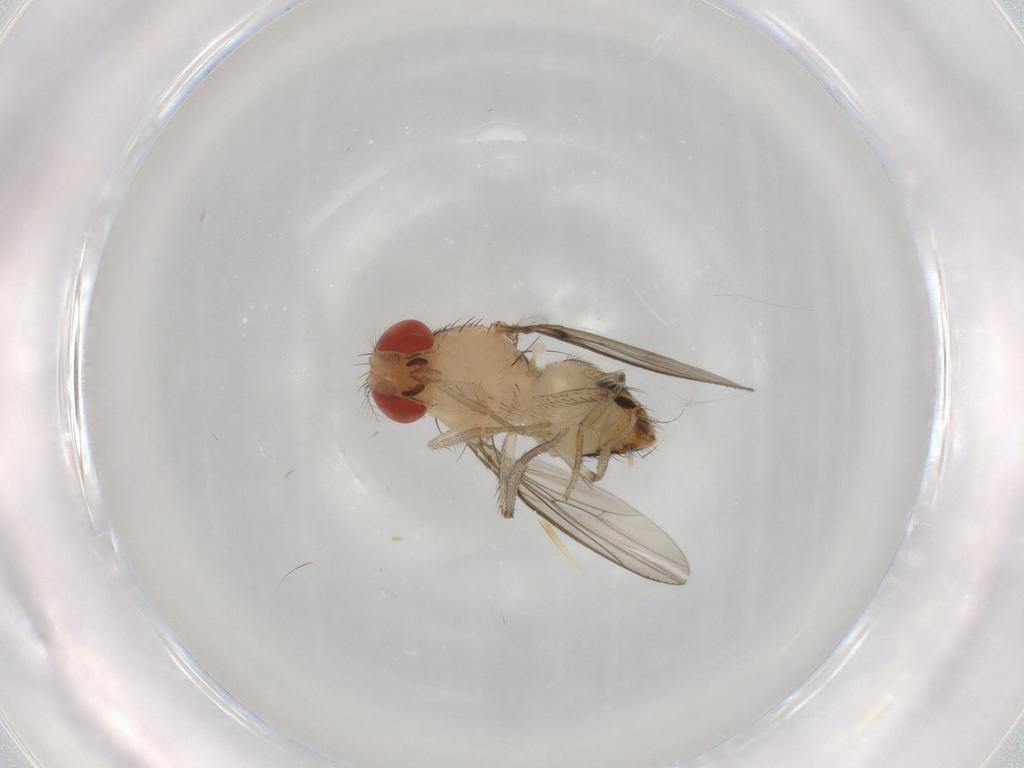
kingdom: Animalia
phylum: Arthropoda
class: Insecta
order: Diptera
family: Drosophilidae
